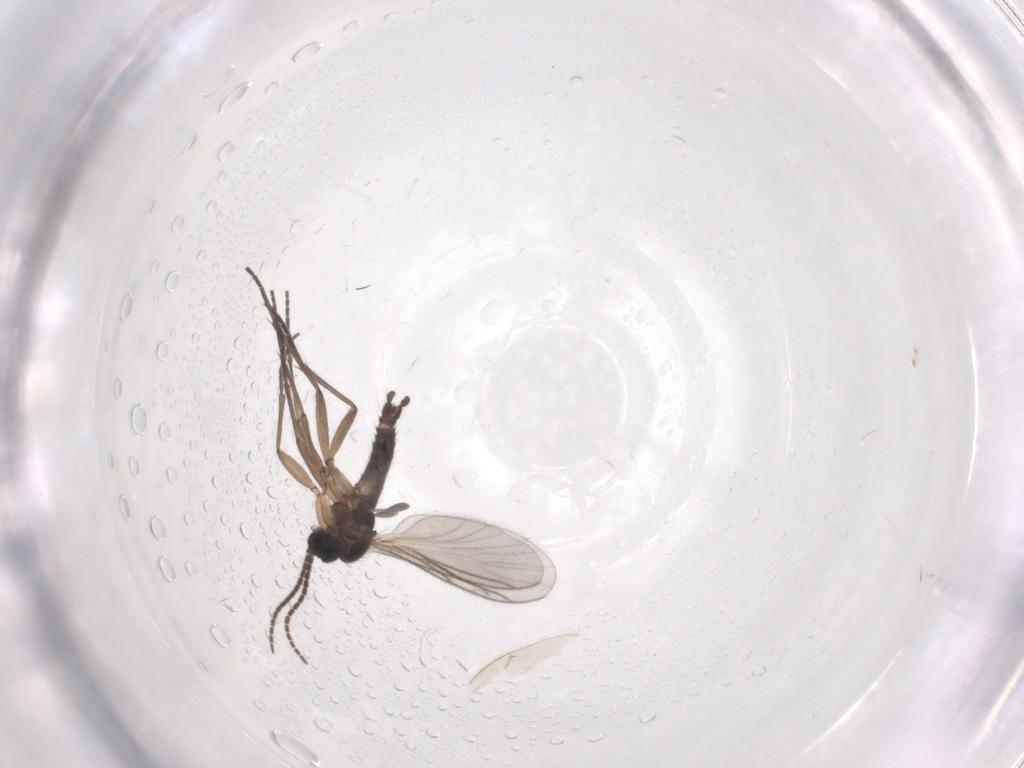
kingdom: Animalia
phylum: Arthropoda
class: Insecta
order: Hymenoptera
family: Braconidae
